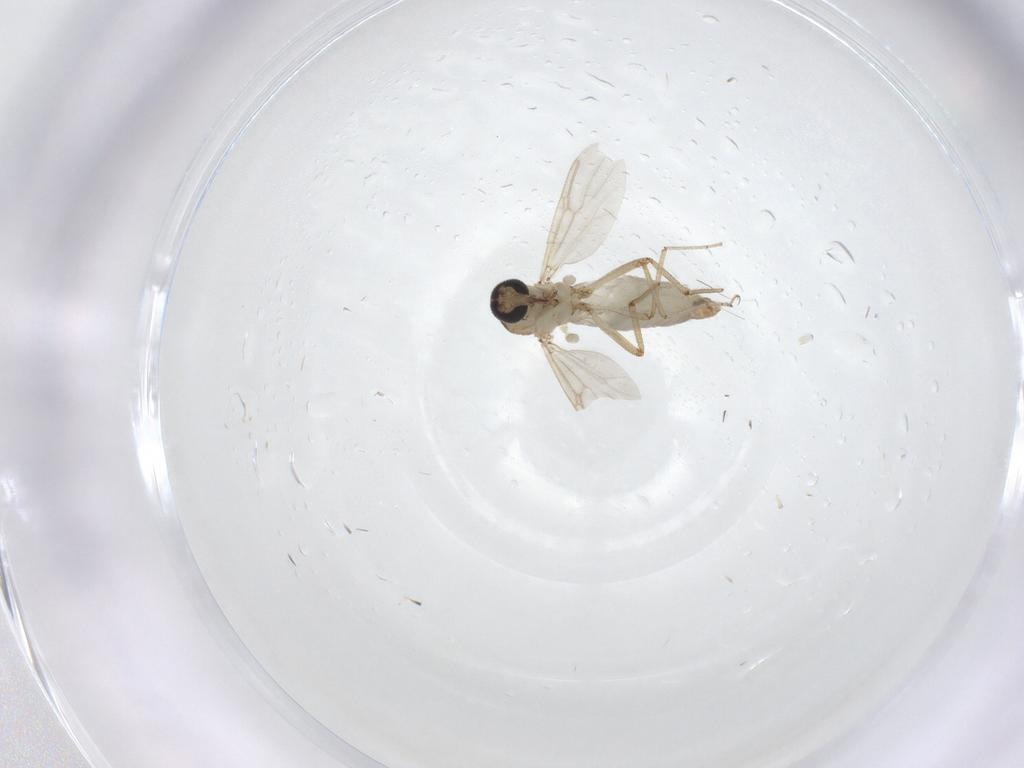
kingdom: Animalia
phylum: Arthropoda
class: Insecta
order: Diptera
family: Ceratopogonidae
